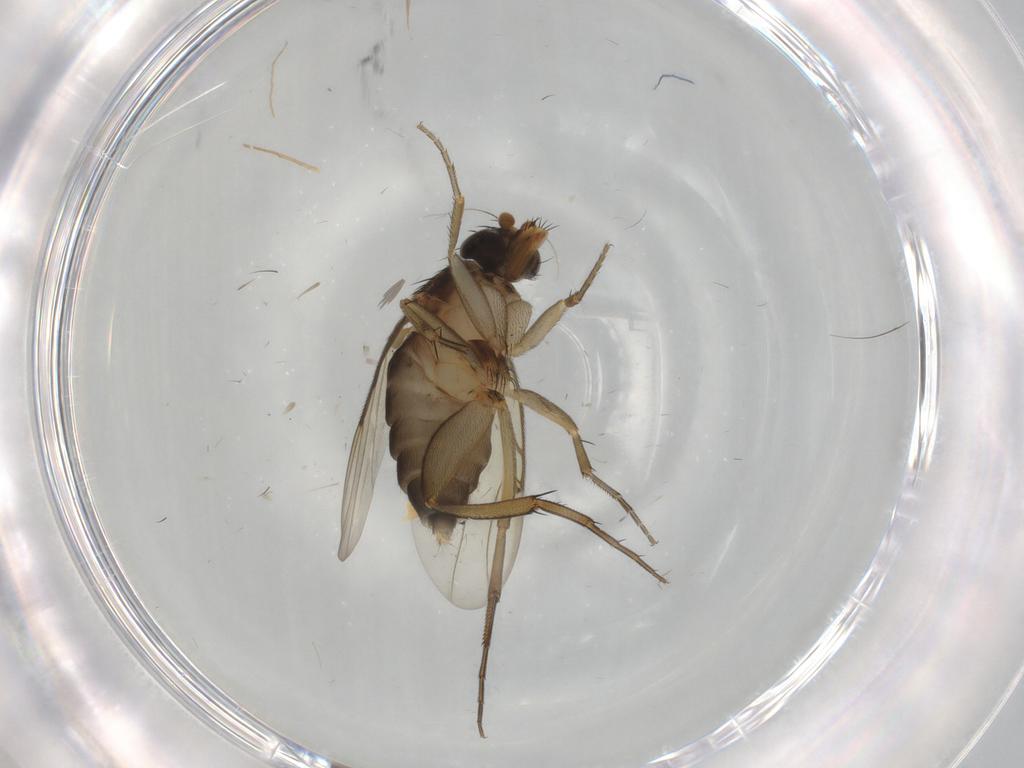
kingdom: Animalia
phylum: Arthropoda
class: Insecta
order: Diptera
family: Phoridae
